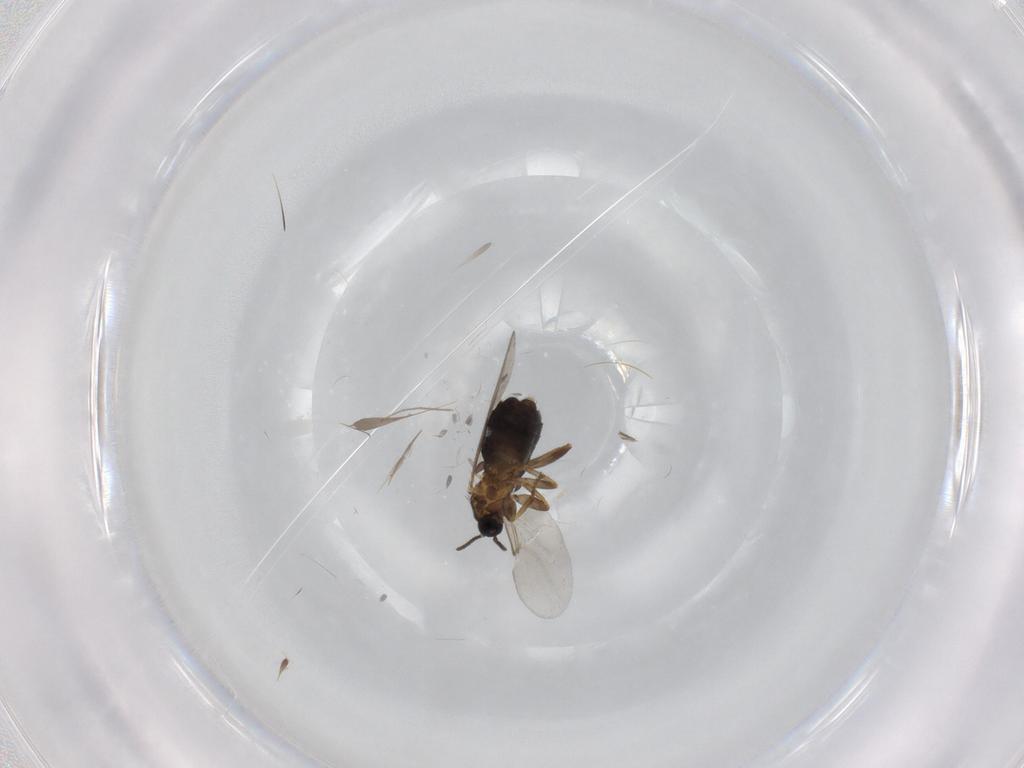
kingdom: Animalia
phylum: Arthropoda
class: Insecta
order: Diptera
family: Scatopsidae
